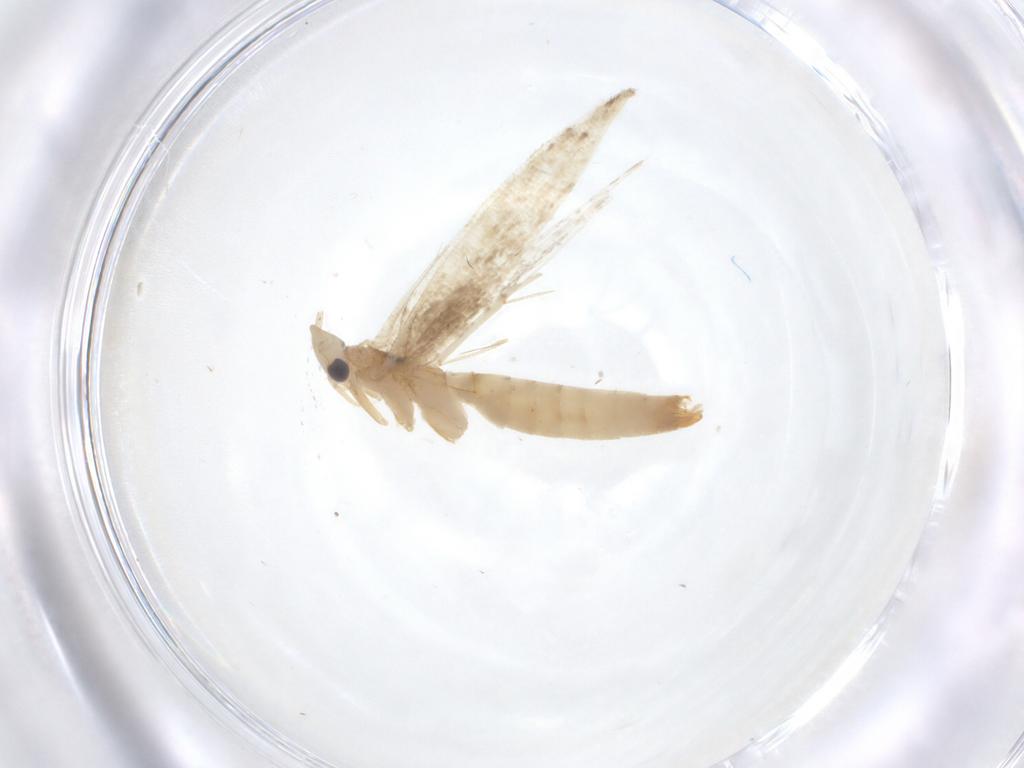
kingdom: Animalia
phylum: Arthropoda
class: Insecta
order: Lepidoptera
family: Tineidae
